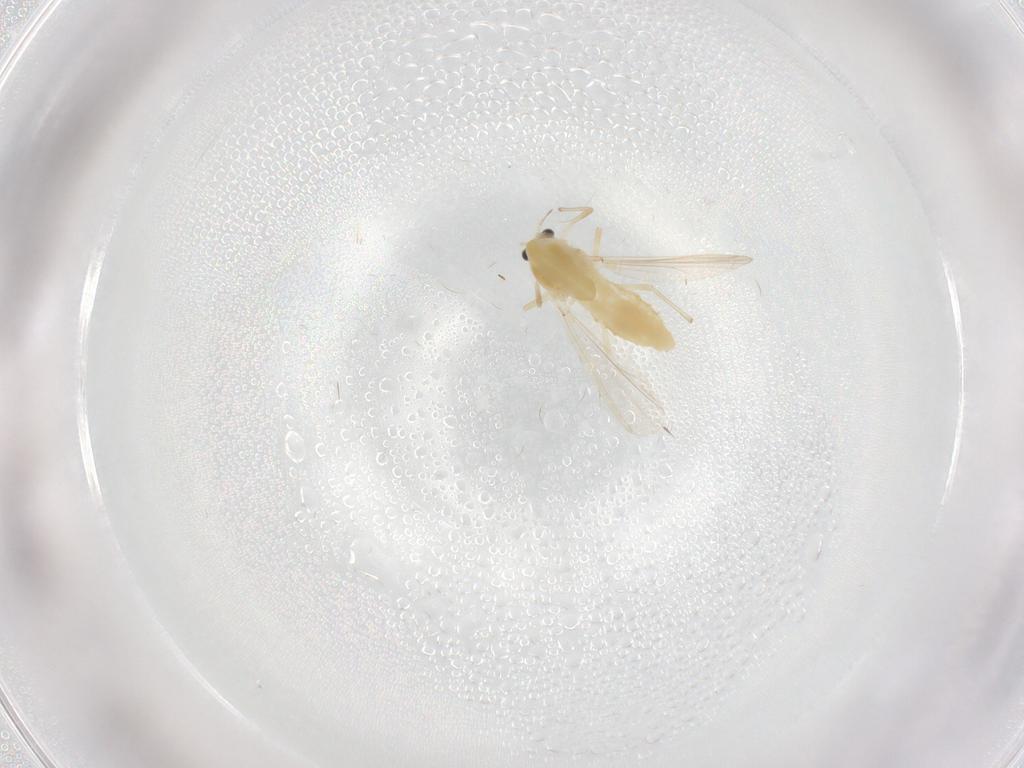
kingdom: Animalia
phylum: Arthropoda
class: Insecta
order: Diptera
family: Chironomidae
